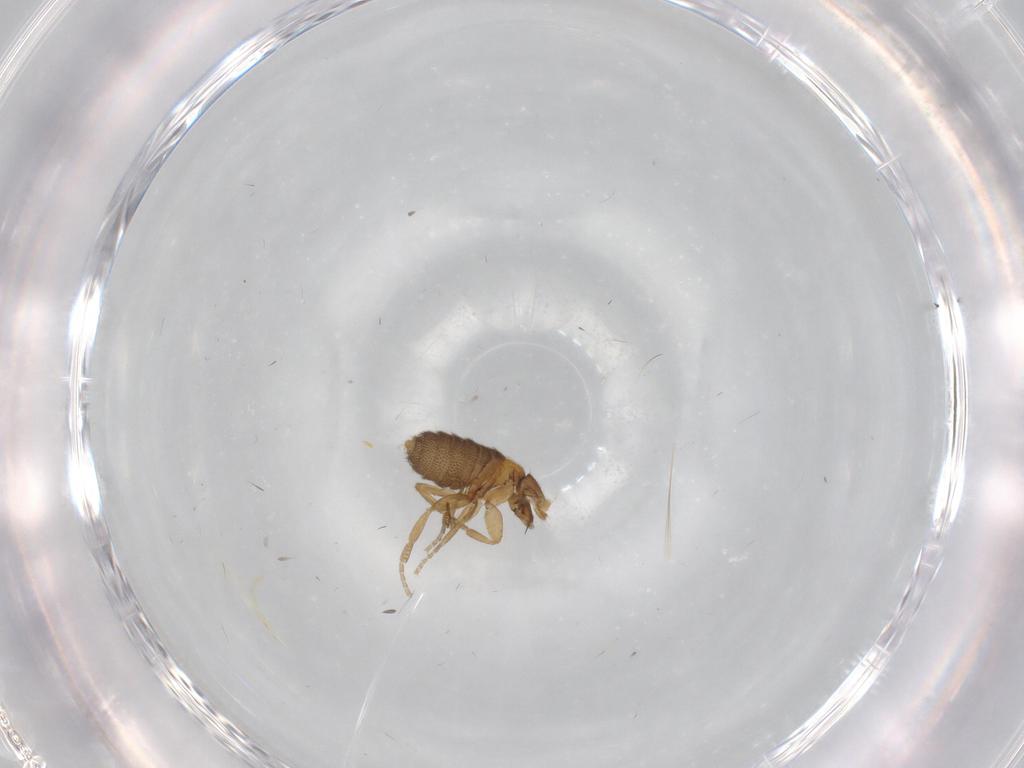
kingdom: Animalia
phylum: Arthropoda
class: Insecta
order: Diptera
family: Phoridae
